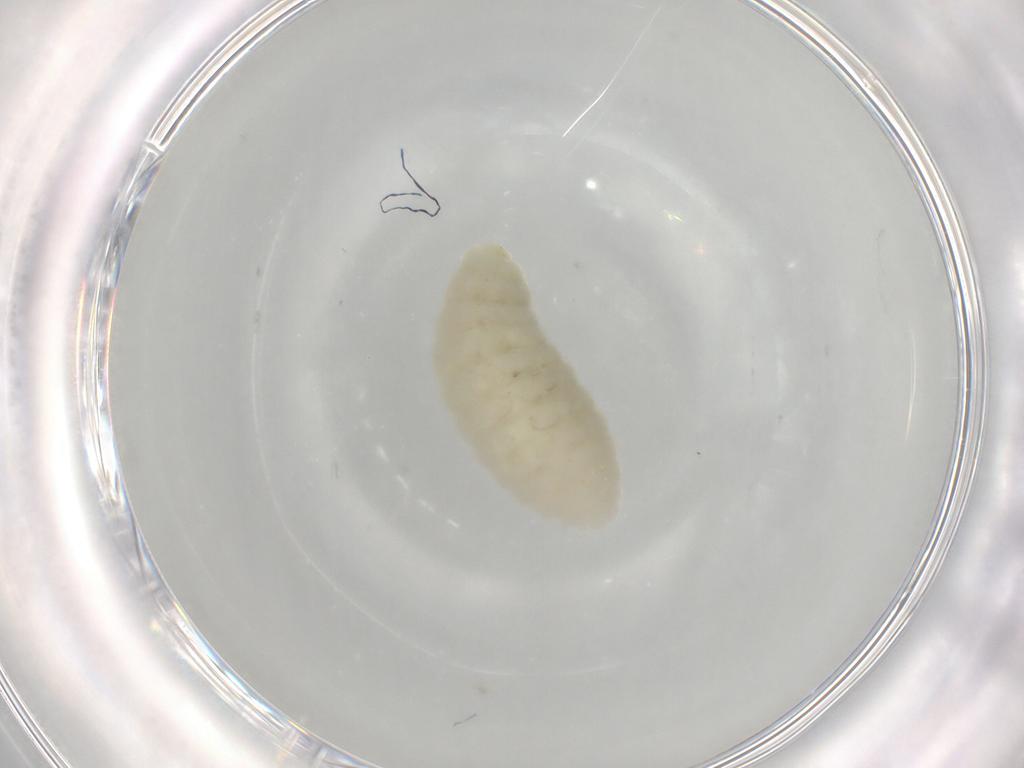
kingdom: Animalia
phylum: Arthropoda
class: Insecta
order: Hymenoptera
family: Eulophidae
